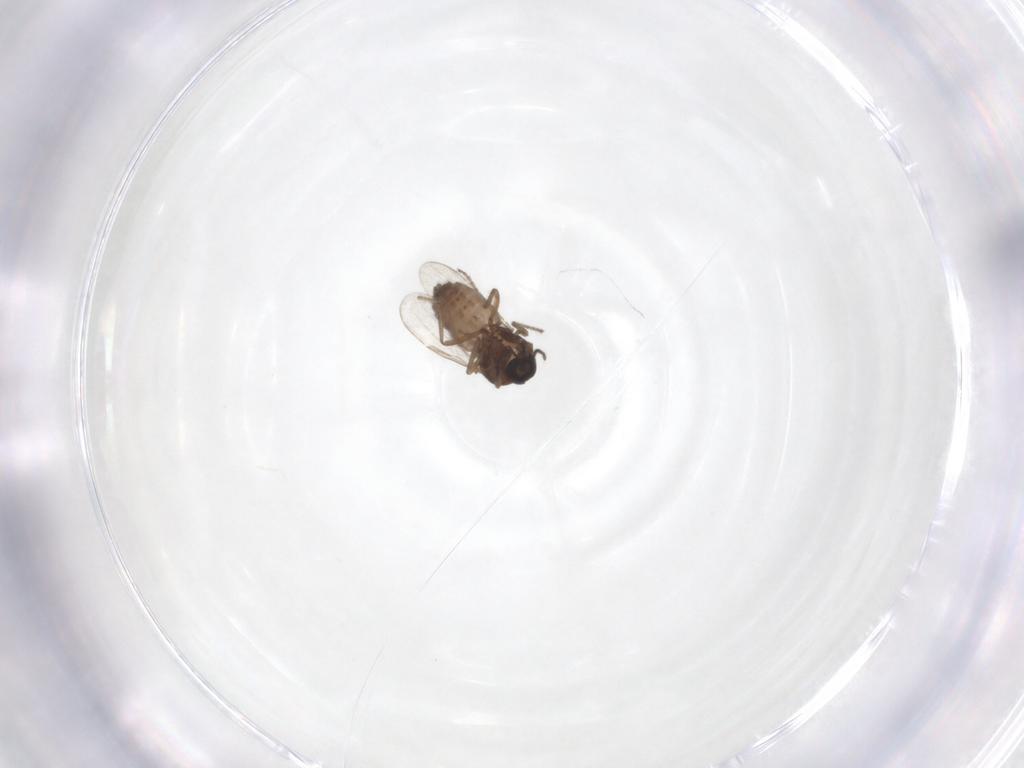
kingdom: Animalia
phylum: Arthropoda
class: Insecta
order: Diptera
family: Ceratopogonidae
